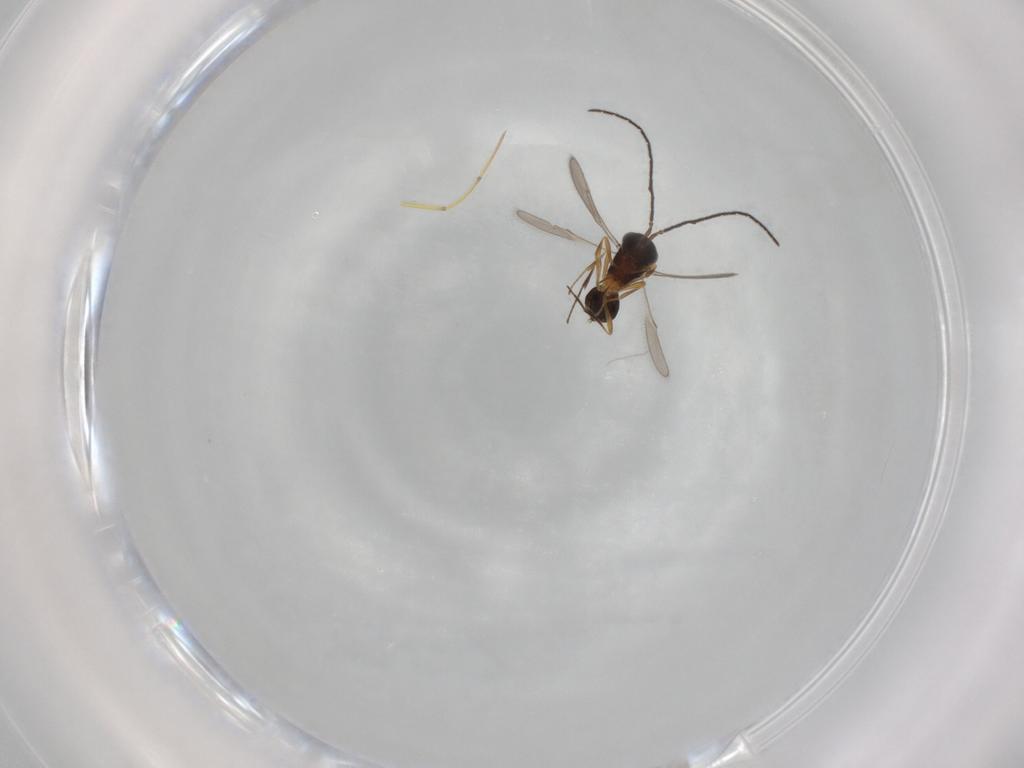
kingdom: Animalia
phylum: Arthropoda
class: Insecta
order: Hymenoptera
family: Scelionidae
